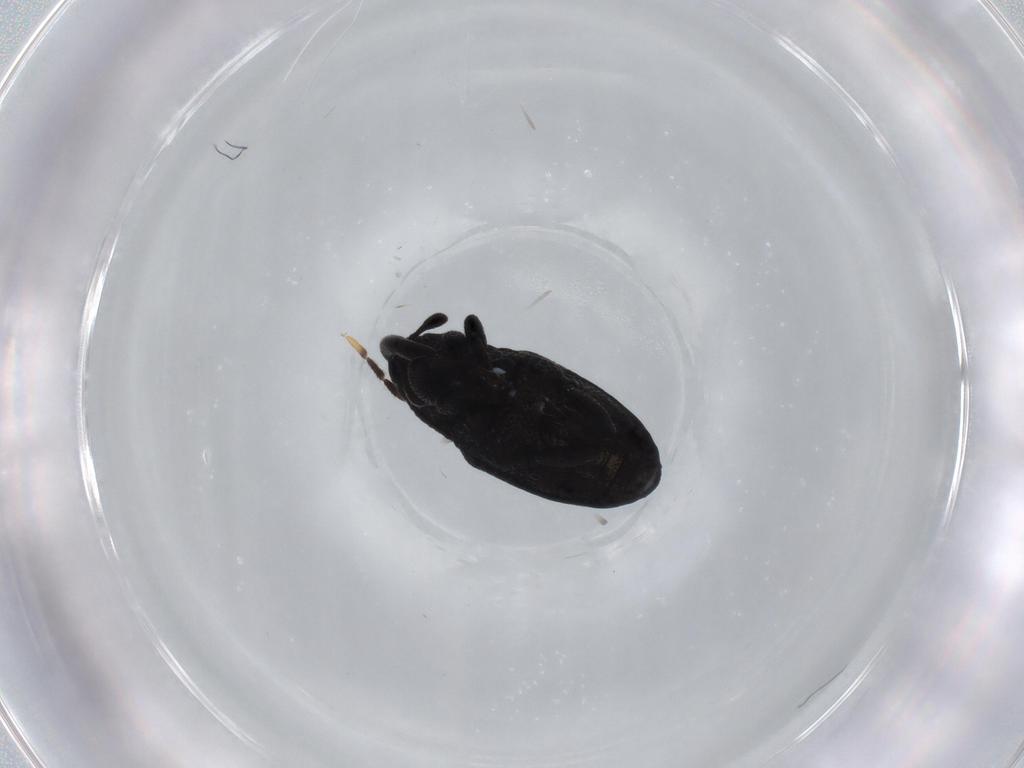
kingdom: Animalia
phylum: Arthropoda
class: Insecta
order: Coleoptera
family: Chrysomelidae
